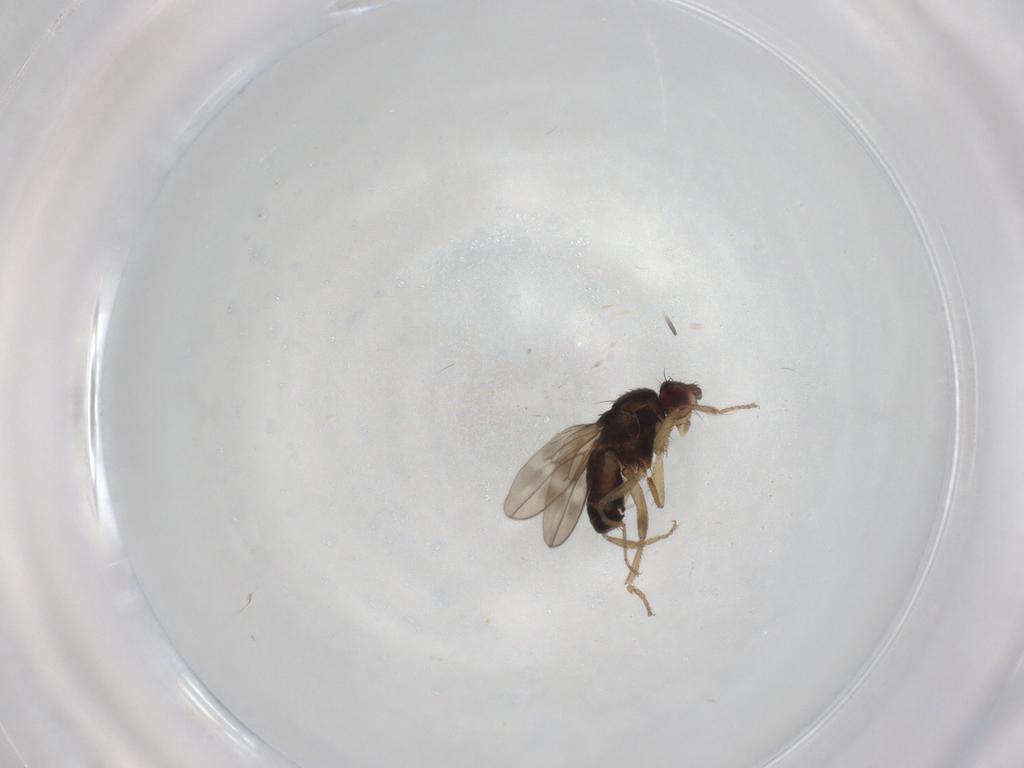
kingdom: Animalia
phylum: Arthropoda
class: Insecta
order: Diptera
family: Sphaeroceridae
